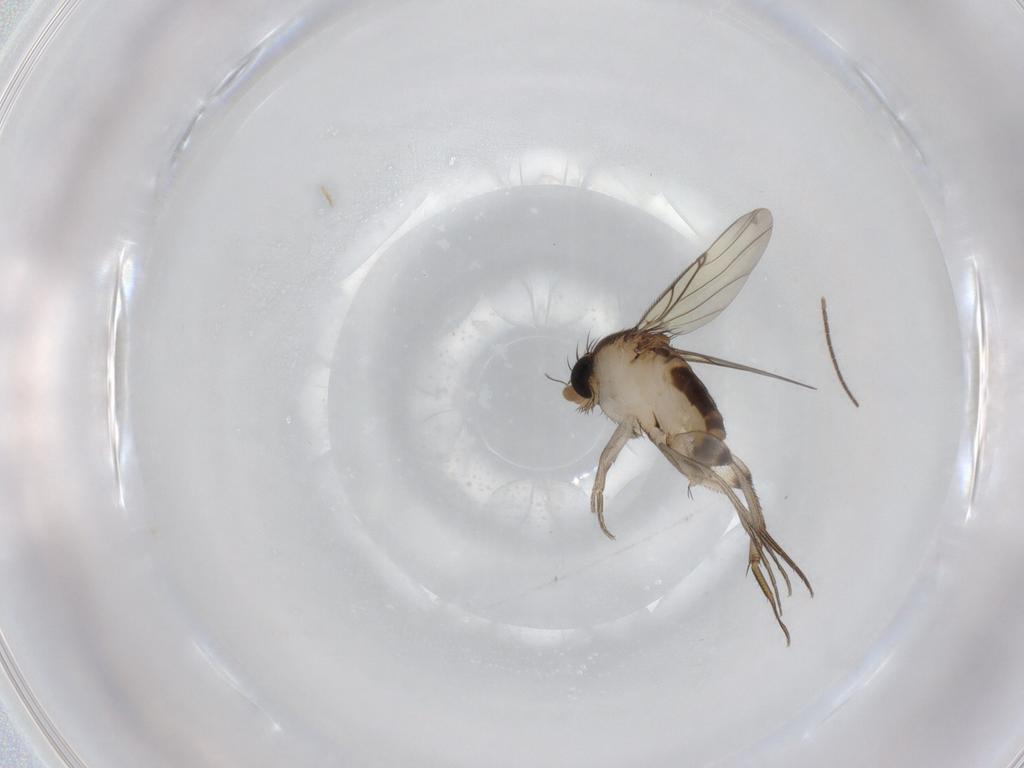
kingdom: Animalia
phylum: Arthropoda
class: Insecta
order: Diptera
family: Phoridae
